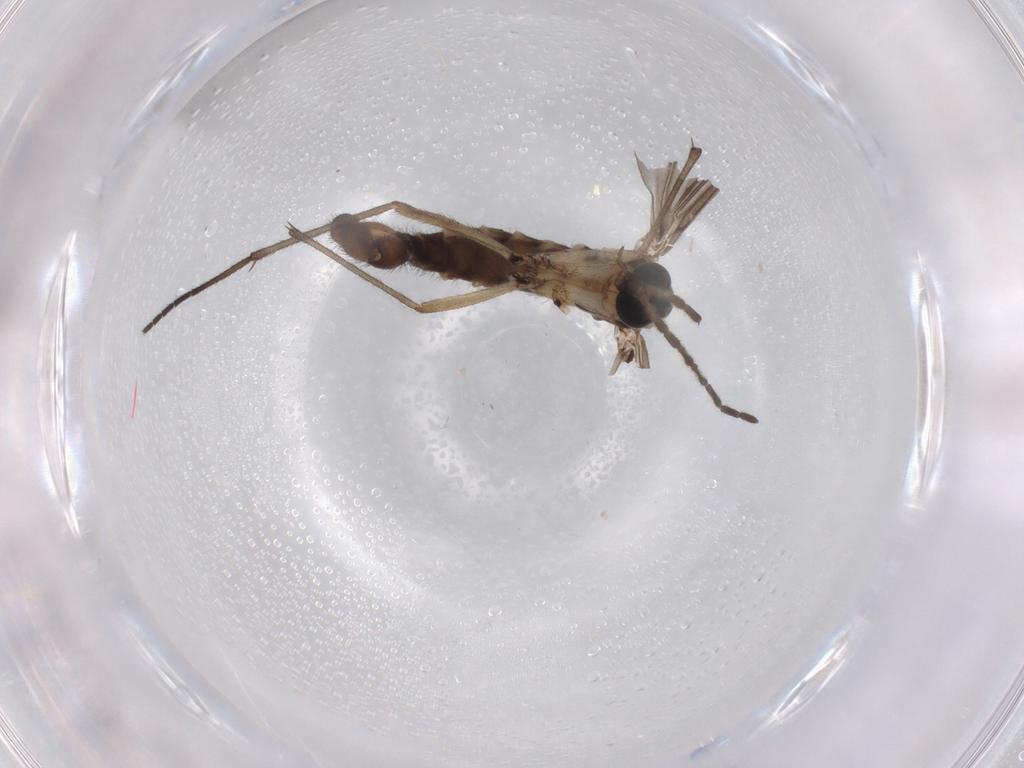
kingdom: Animalia
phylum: Arthropoda
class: Insecta
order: Diptera
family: Sciaridae
